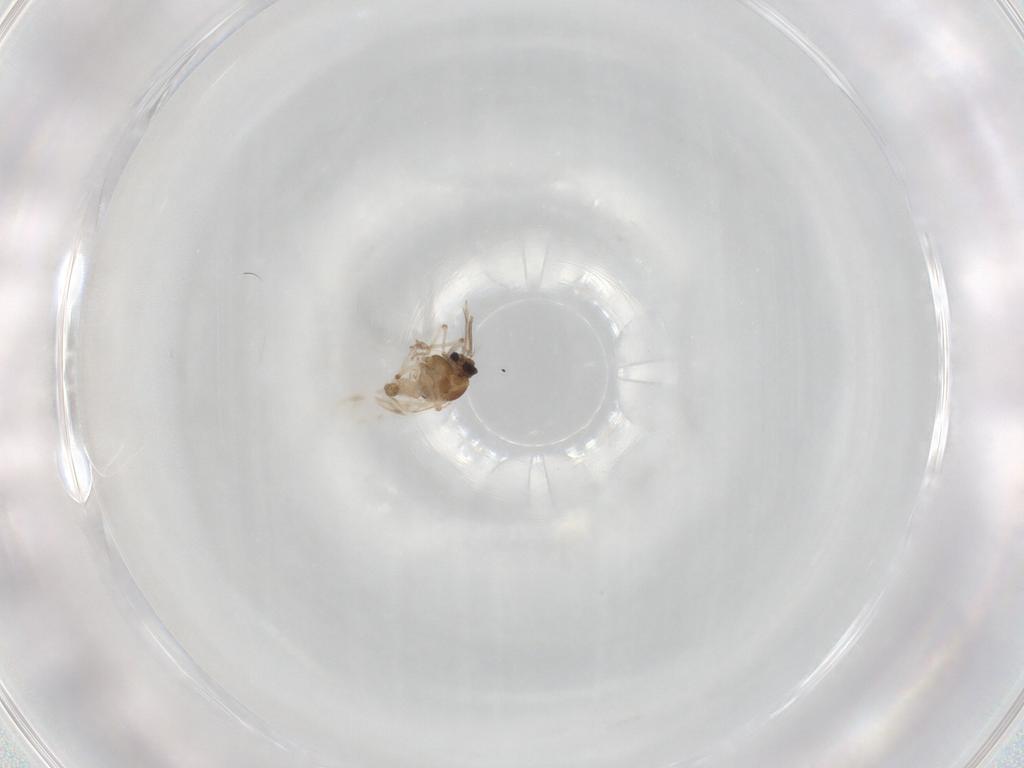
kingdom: Animalia
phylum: Arthropoda
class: Insecta
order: Diptera
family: Ceratopogonidae
